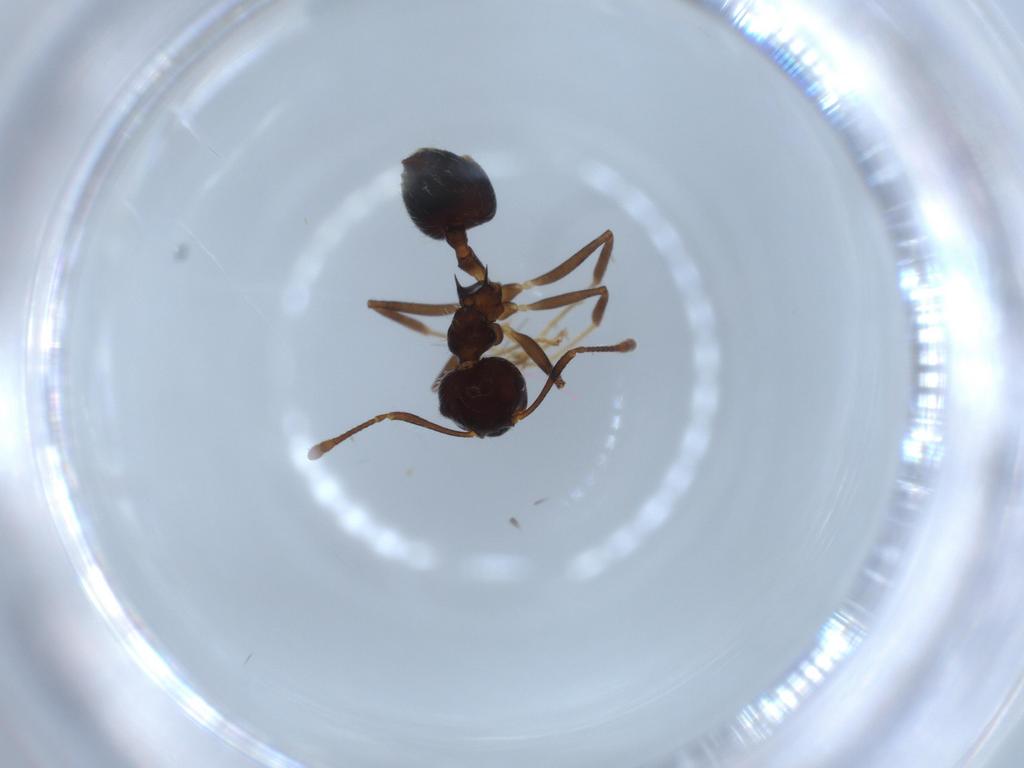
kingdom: Animalia
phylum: Arthropoda
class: Insecta
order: Hymenoptera
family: Formicidae
